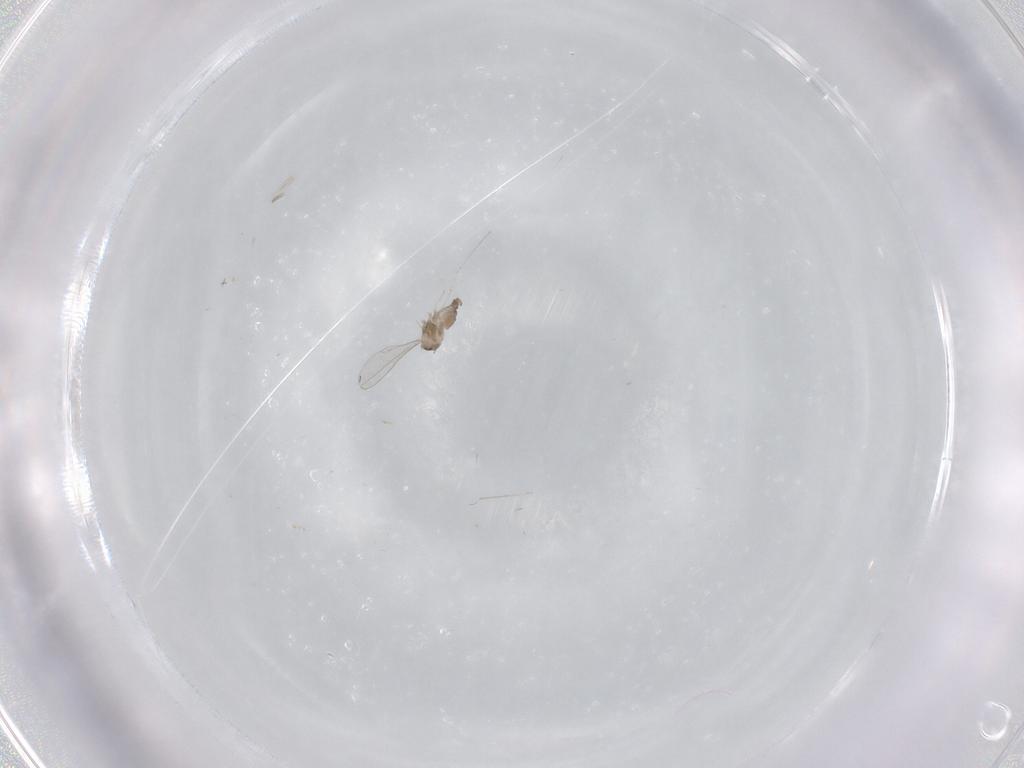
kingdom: Animalia
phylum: Arthropoda
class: Insecta
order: Diptera
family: Cecidomyiidae
